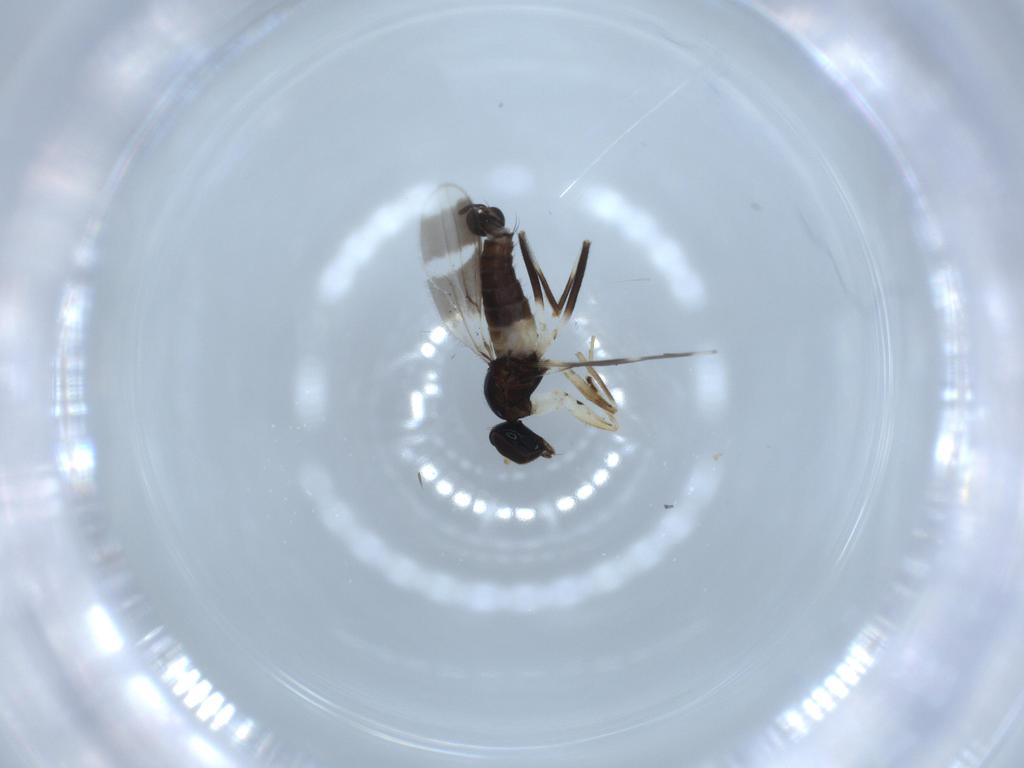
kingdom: Animalia
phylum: Arthropoda
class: Insecta
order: Diptera
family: Hybotidae
